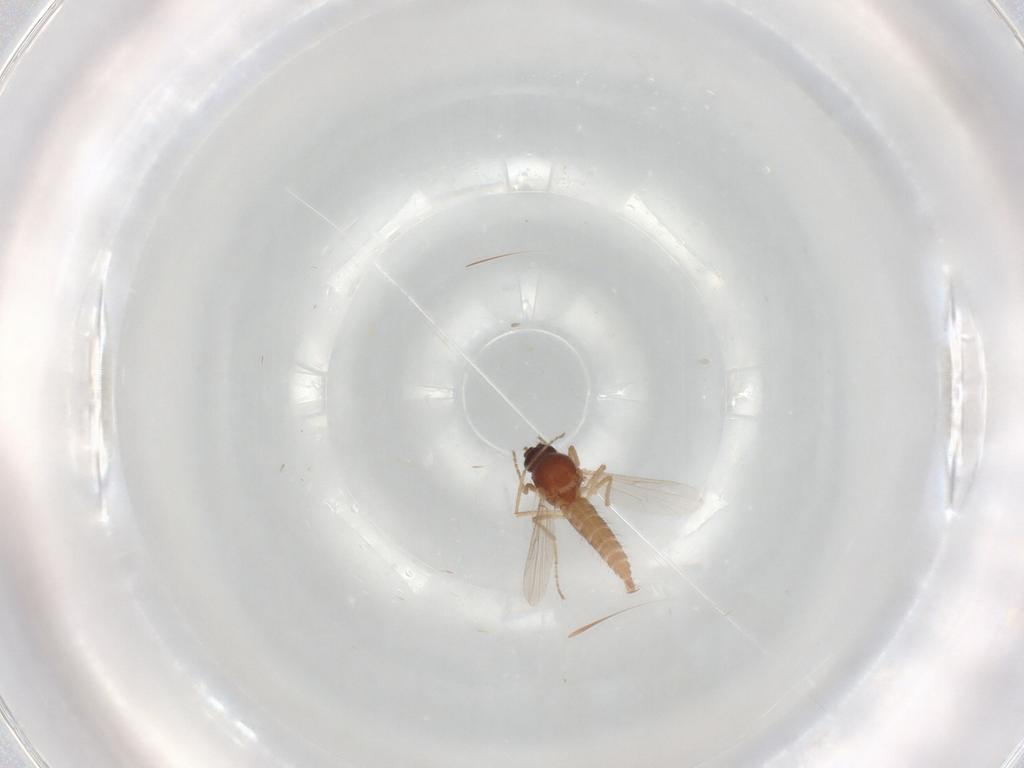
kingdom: Animalia
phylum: Arthropoda
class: Insecta
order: Diptera
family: Ceratopogonidae
